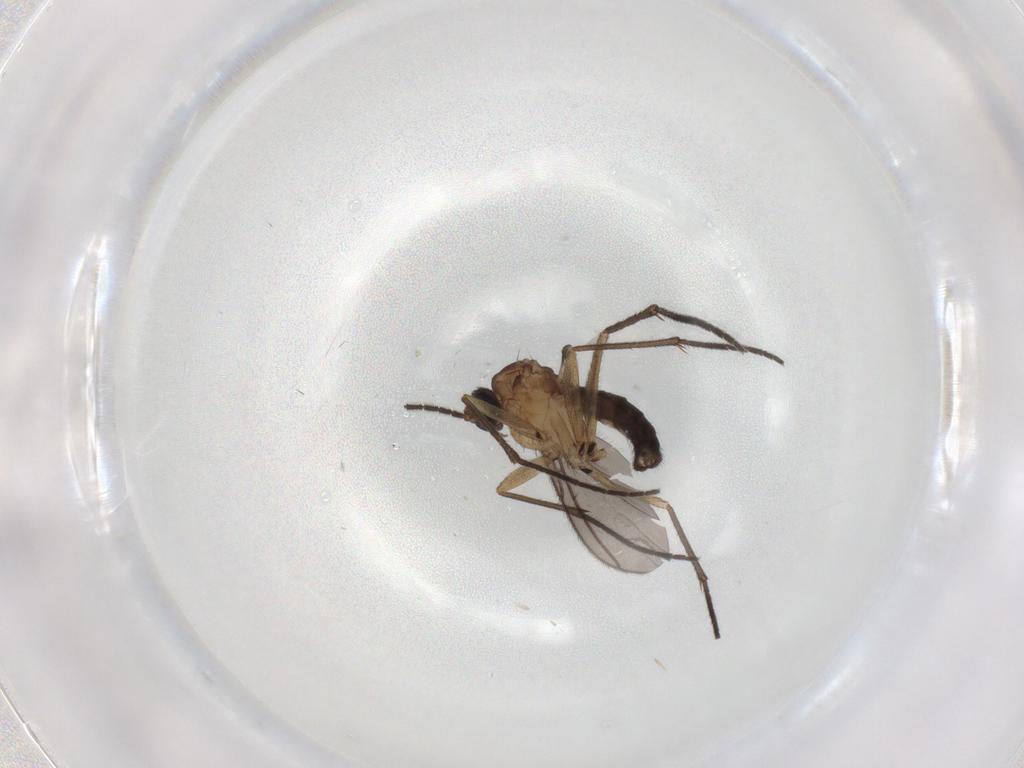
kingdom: Animalia
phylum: Arthropoda
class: Insecta
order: Diptera
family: Sciaridae
